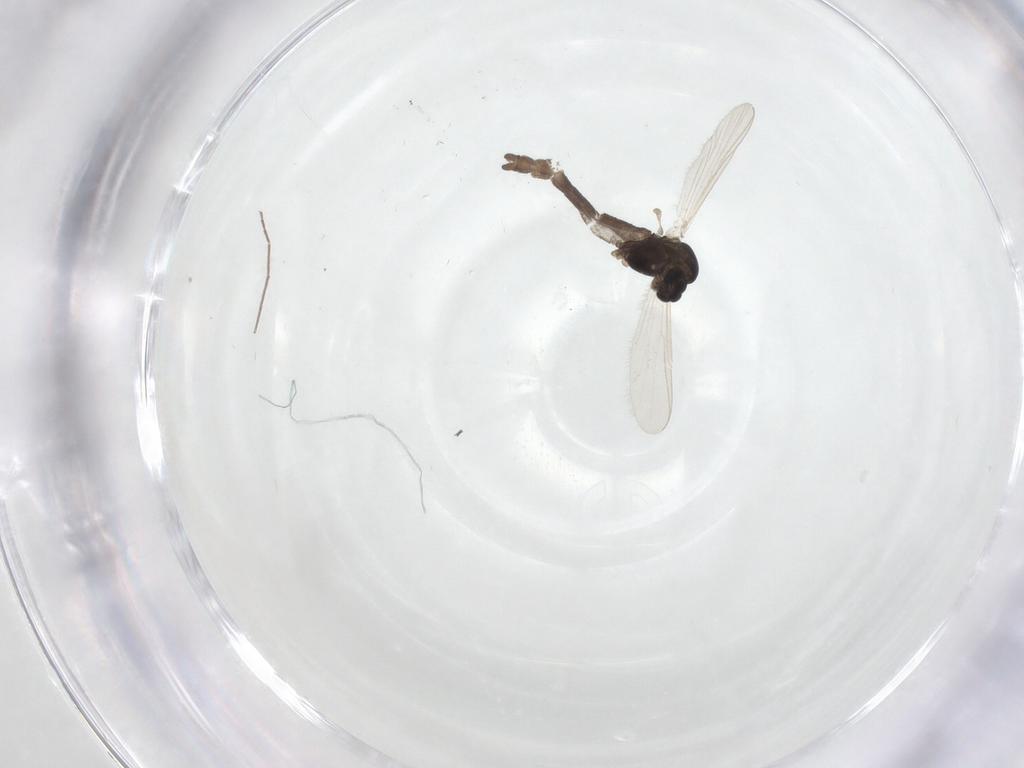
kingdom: Animalia
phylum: Arthropoda
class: Insecta
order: Diptera
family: Chironomidae
